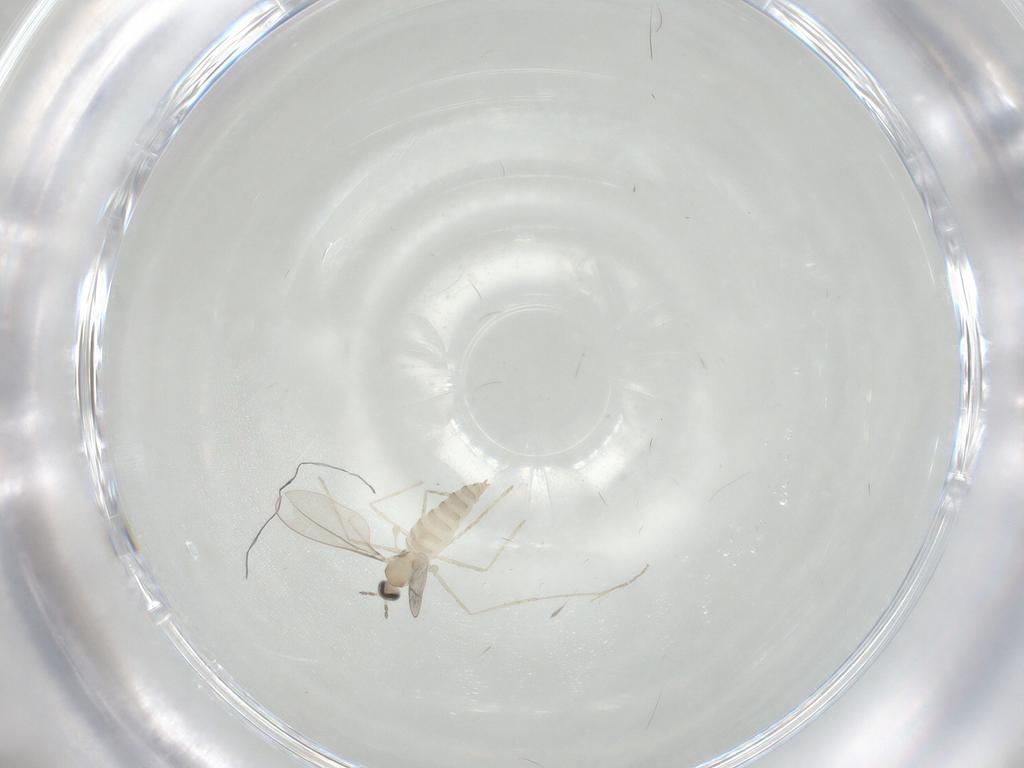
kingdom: Animalia
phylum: Arthropoda
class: Insecta
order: Diptera
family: Cecidomyiidae
